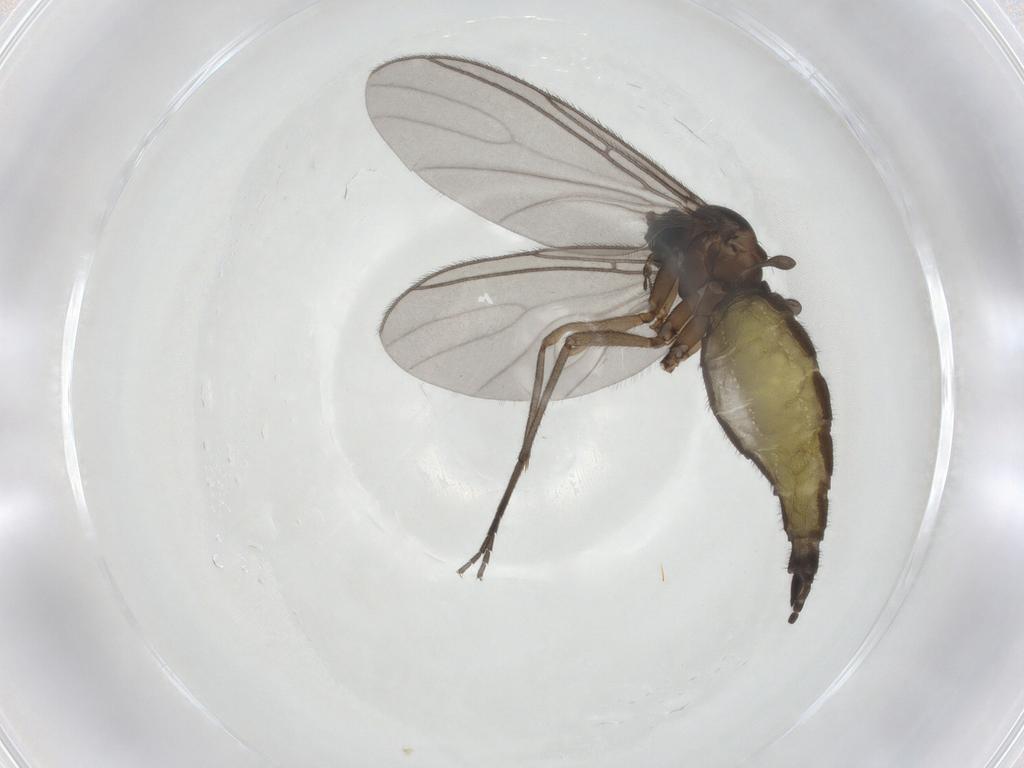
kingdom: Animalia
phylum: Arthropoda
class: Insecta
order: Diptera
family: Sciaridae
